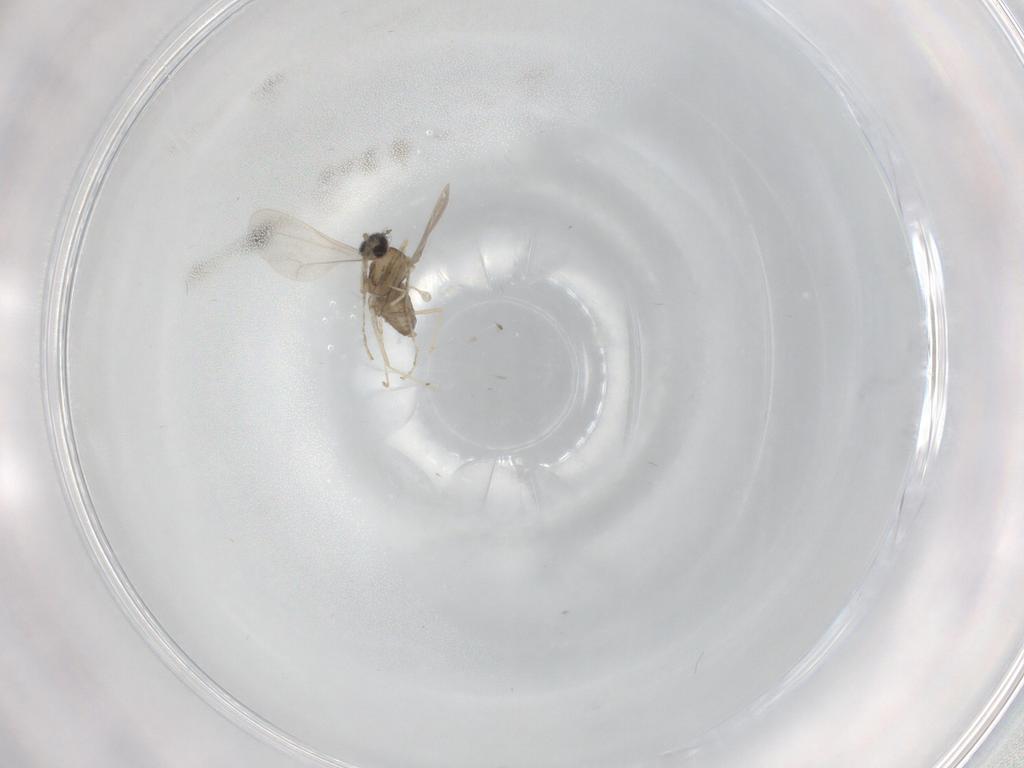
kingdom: Animalia
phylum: Arthropoda
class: Insecta
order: Diptera
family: Cecidomyiidae
